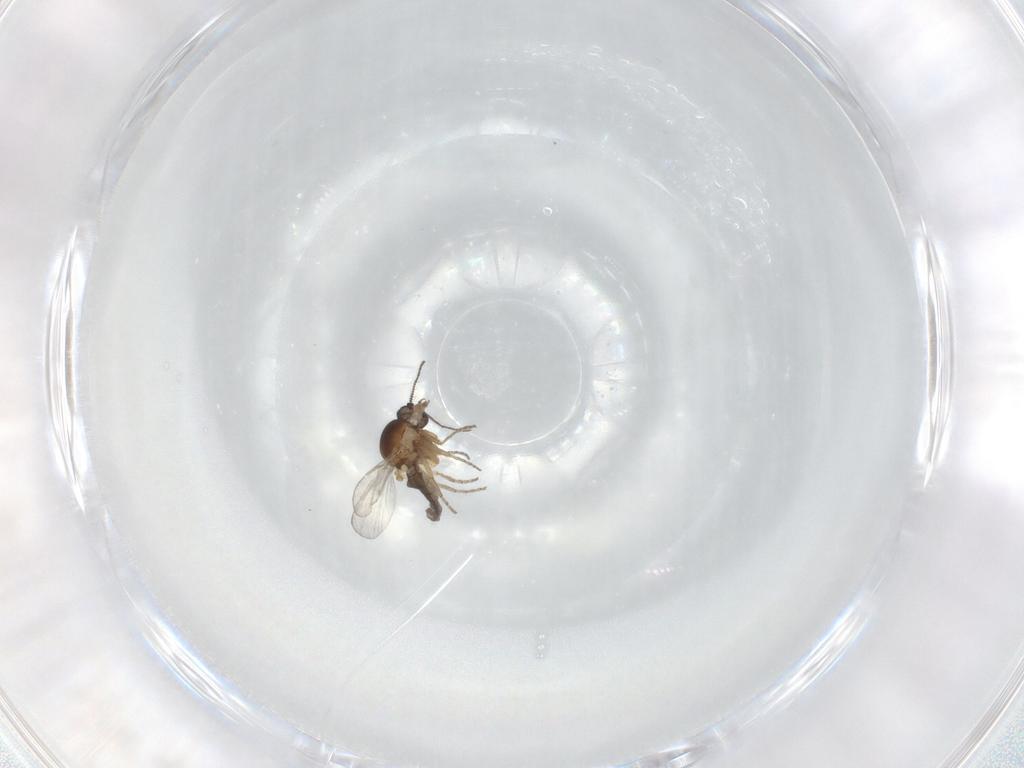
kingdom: Animalia
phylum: Arthropoda
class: Insecta
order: Diptera
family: Ceratopogonidae
